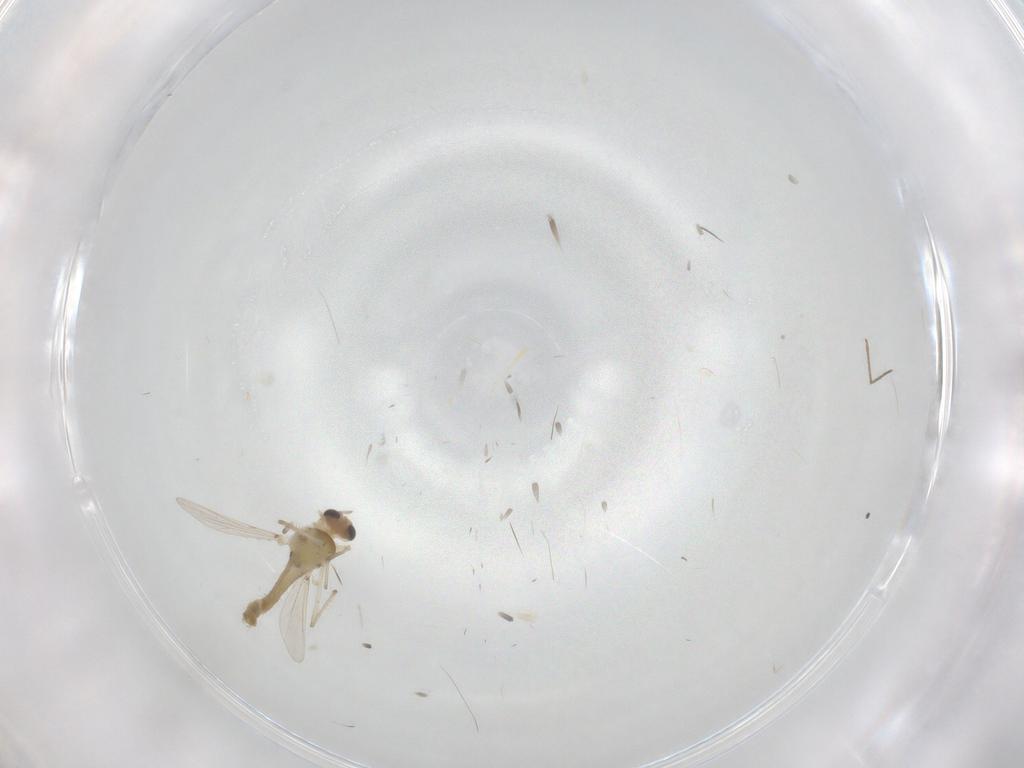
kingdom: Animalia
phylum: Arthropoda
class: Insecta
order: Diptera
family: Chironomidae
